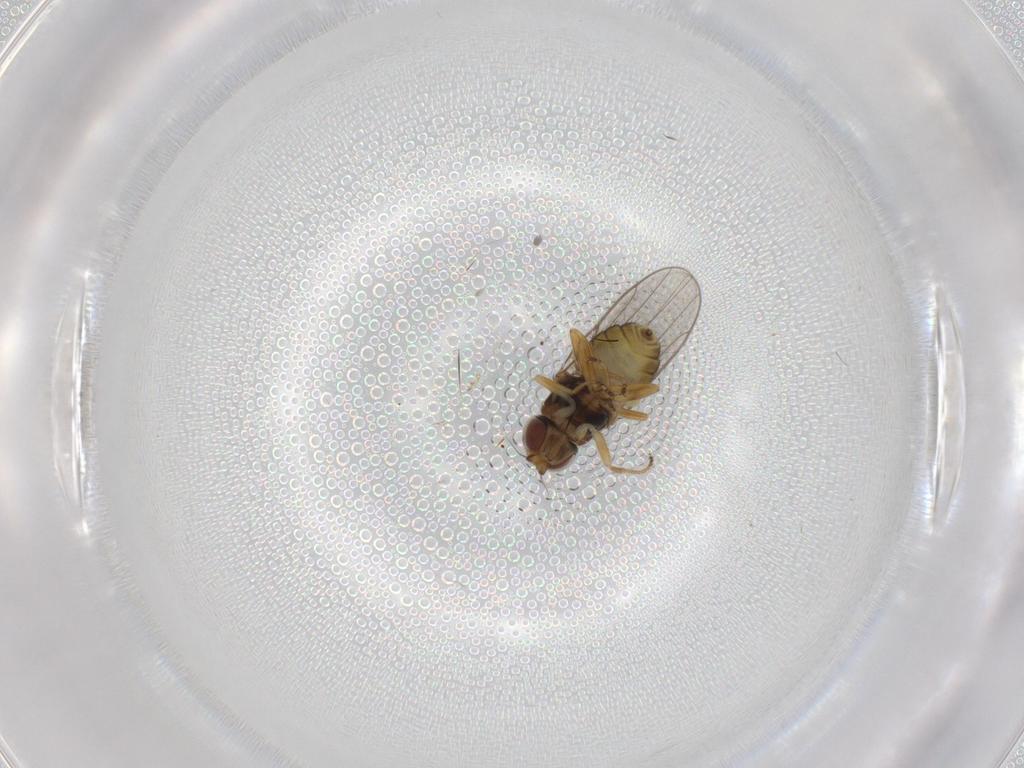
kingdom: Animalia
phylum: Arthropoda
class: Insecta
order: Diptera
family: Chloropidae
